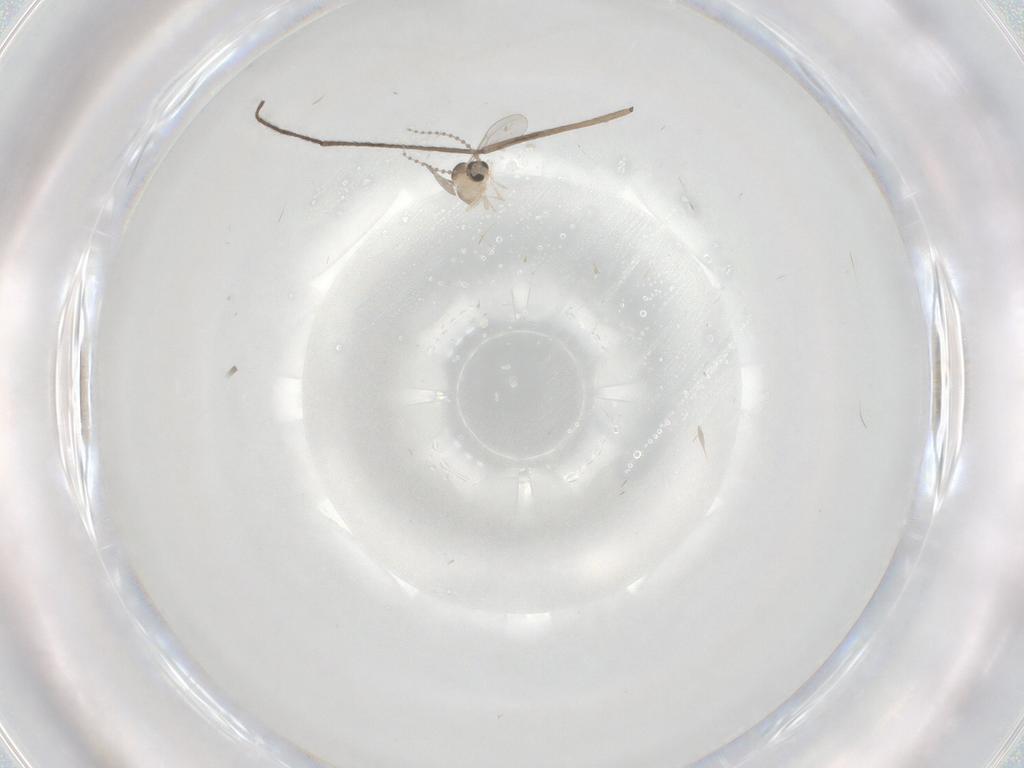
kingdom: Animalia
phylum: Arthropoda
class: Insecta
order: Diptera
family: Cecidomyiidae
